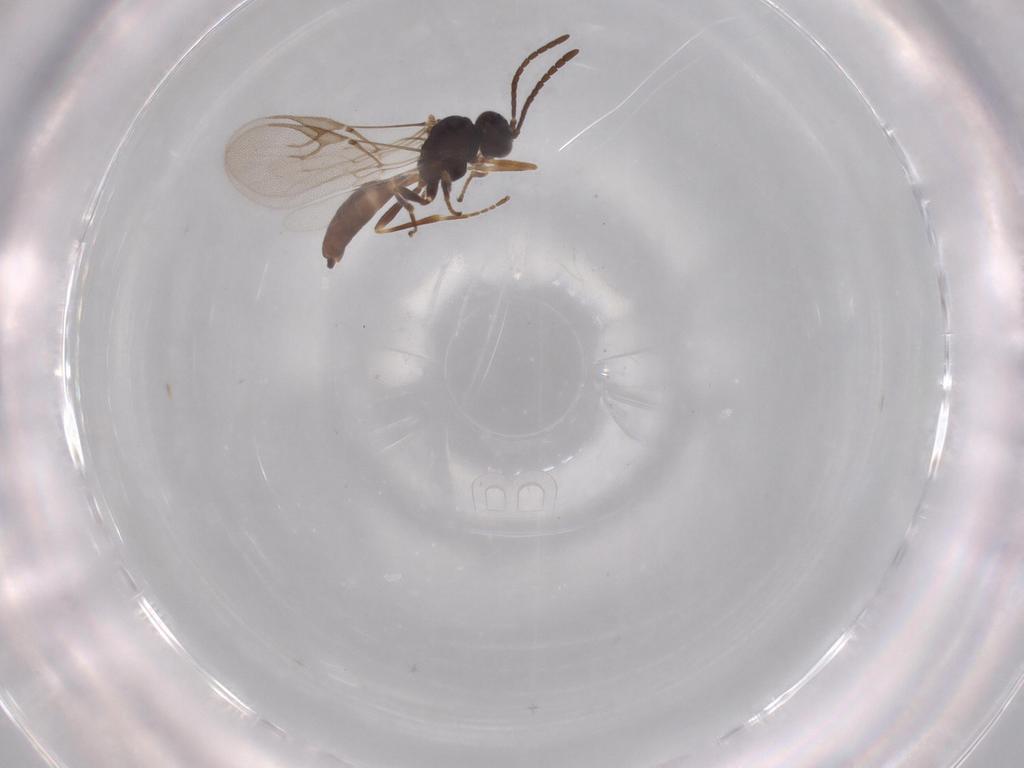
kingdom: Animalia
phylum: Arthropoda
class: Insecta
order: Hymenoptera
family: Braconidae
